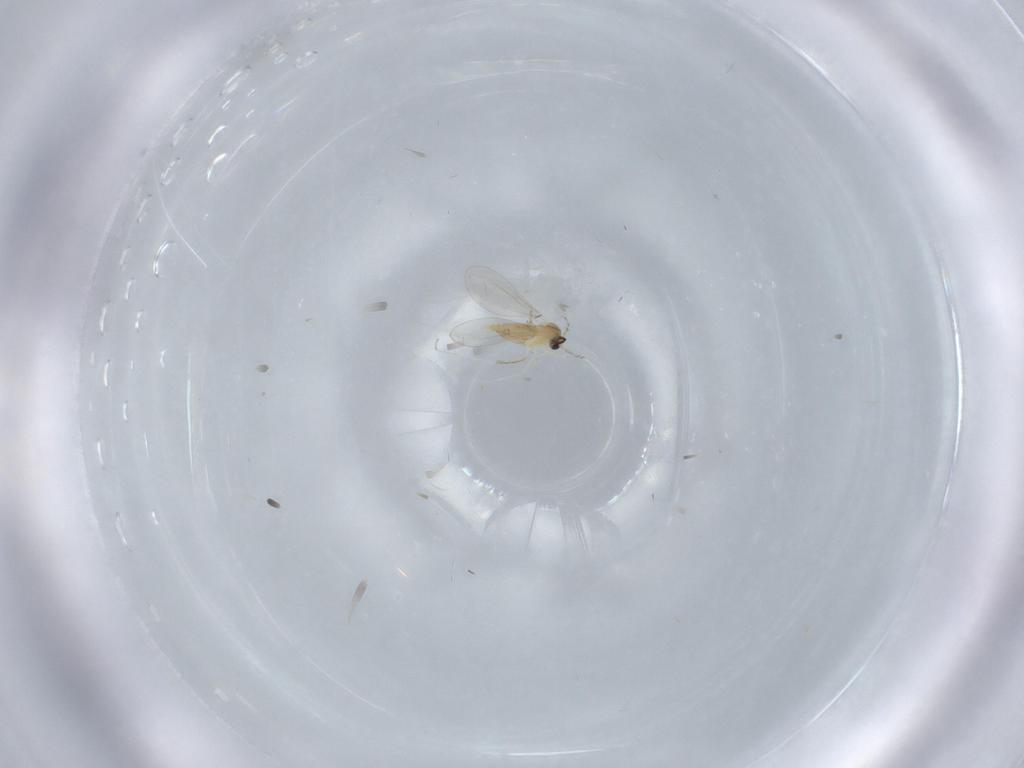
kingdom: Animalia
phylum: Arthropoda
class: Insecta
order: Diptera
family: Cecidomyiidae
